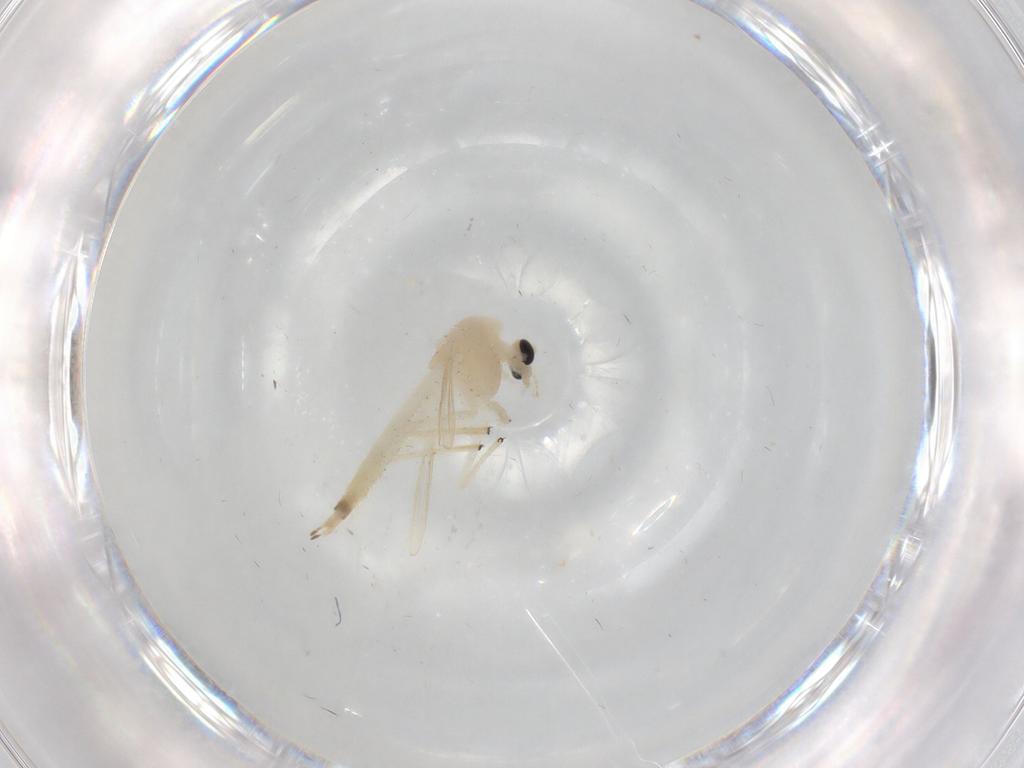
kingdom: Animalia
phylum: Arthropoda
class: Insecta
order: Diptera
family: Chironomidae
